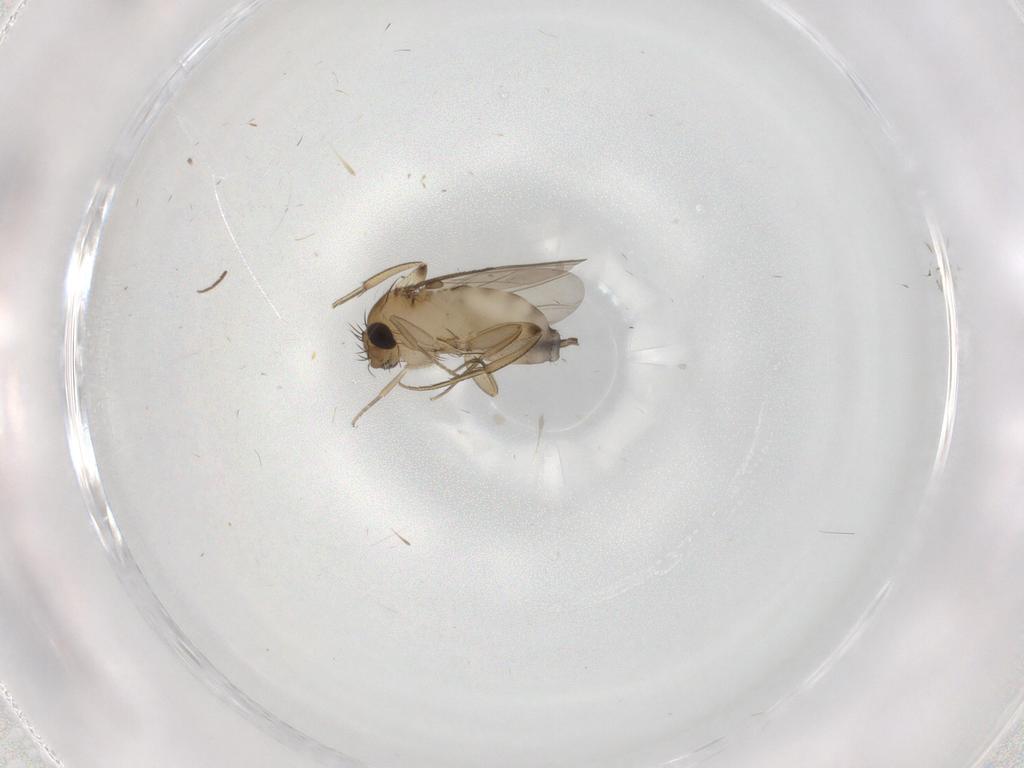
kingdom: Animalia
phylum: Arthropoda
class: Insecta
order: Diptera
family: Phoridae
